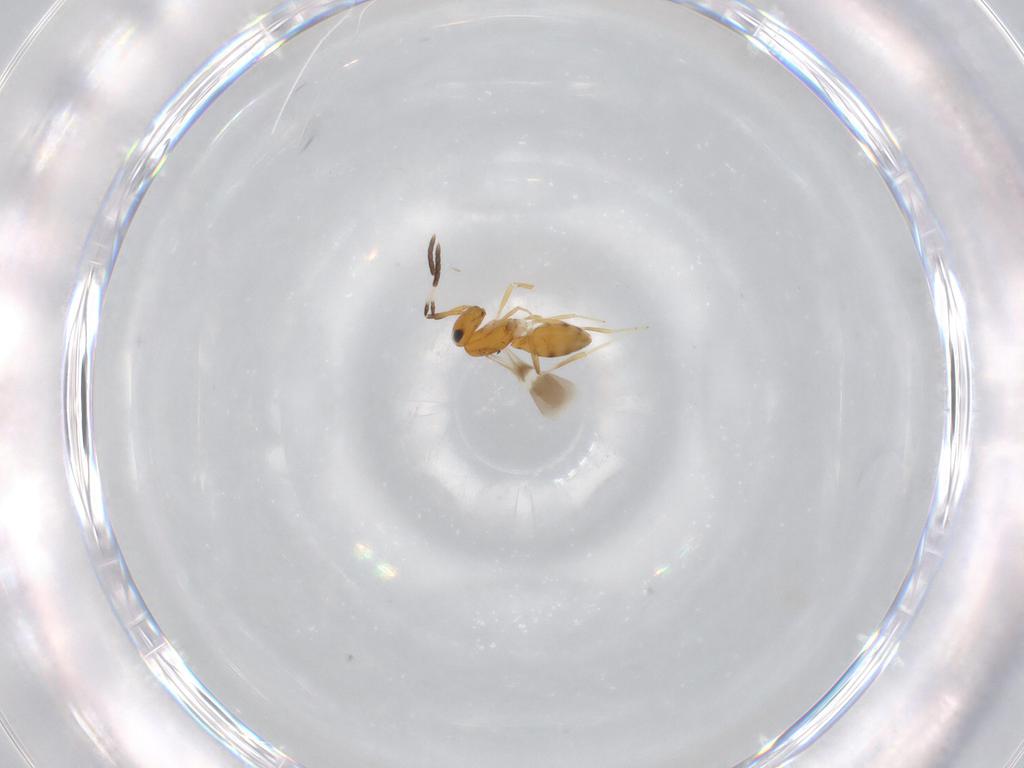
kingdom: Animalia
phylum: Arthropoda
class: Insecta
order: Hymenoptera
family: Scelionidae
